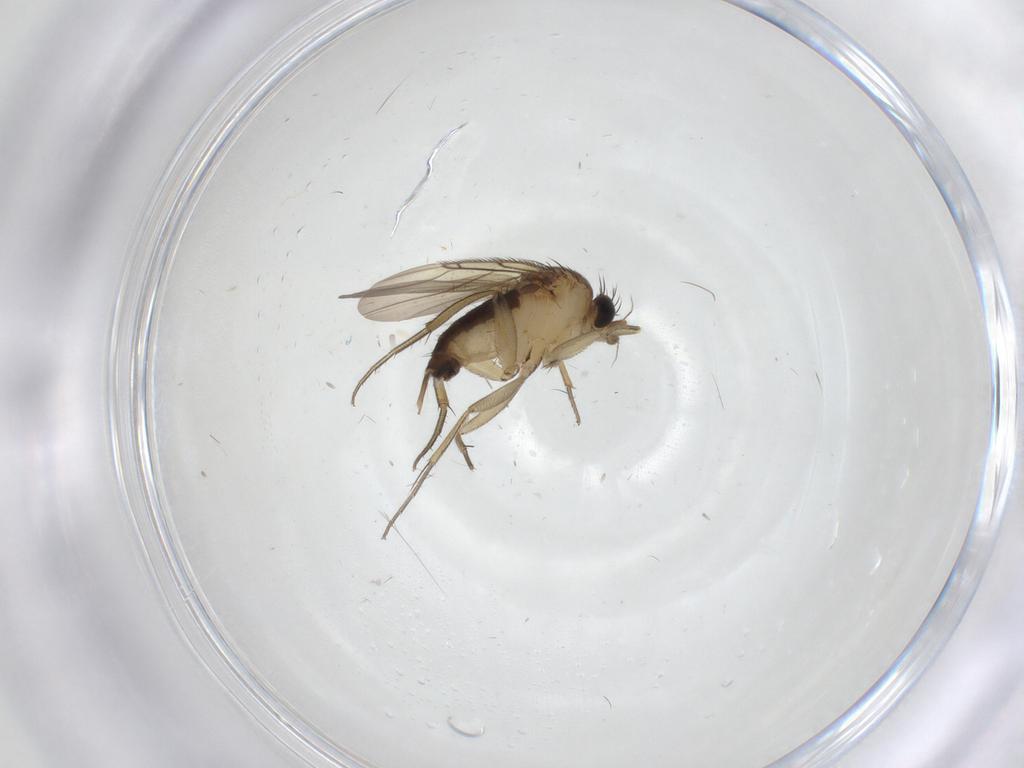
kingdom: Animalia
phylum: Arthropoda
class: Insecta
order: Diptera
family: Phoridae
